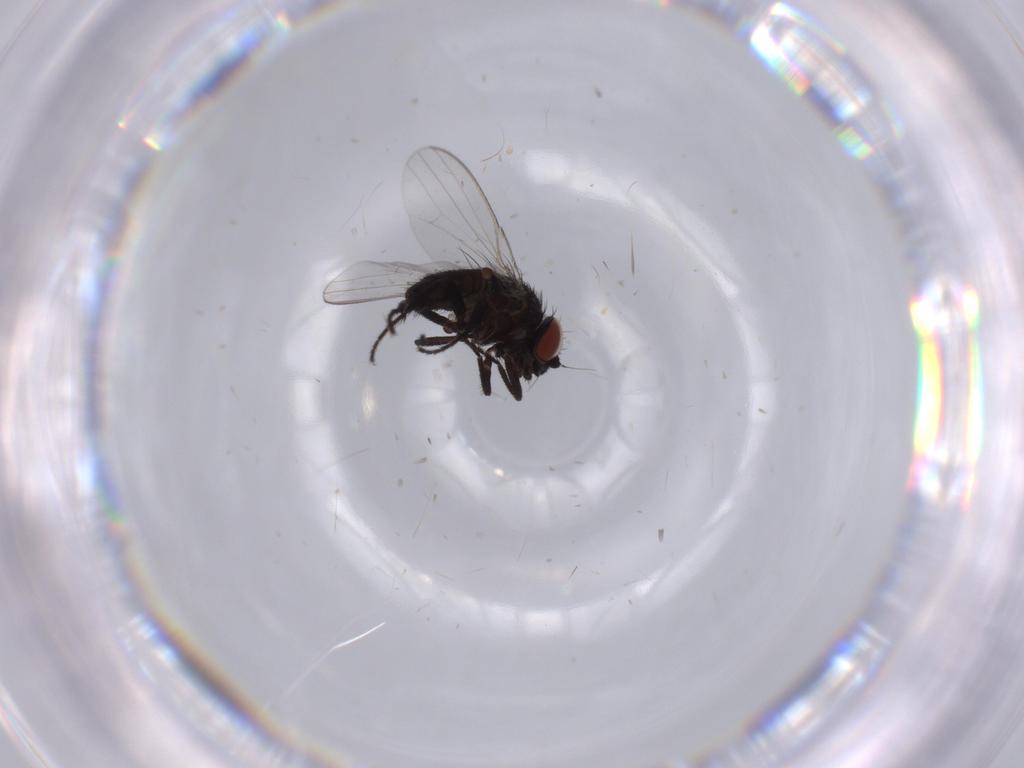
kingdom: Animalia
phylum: Arthropoda
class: Insecta
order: Diptera
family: Milichiidae
